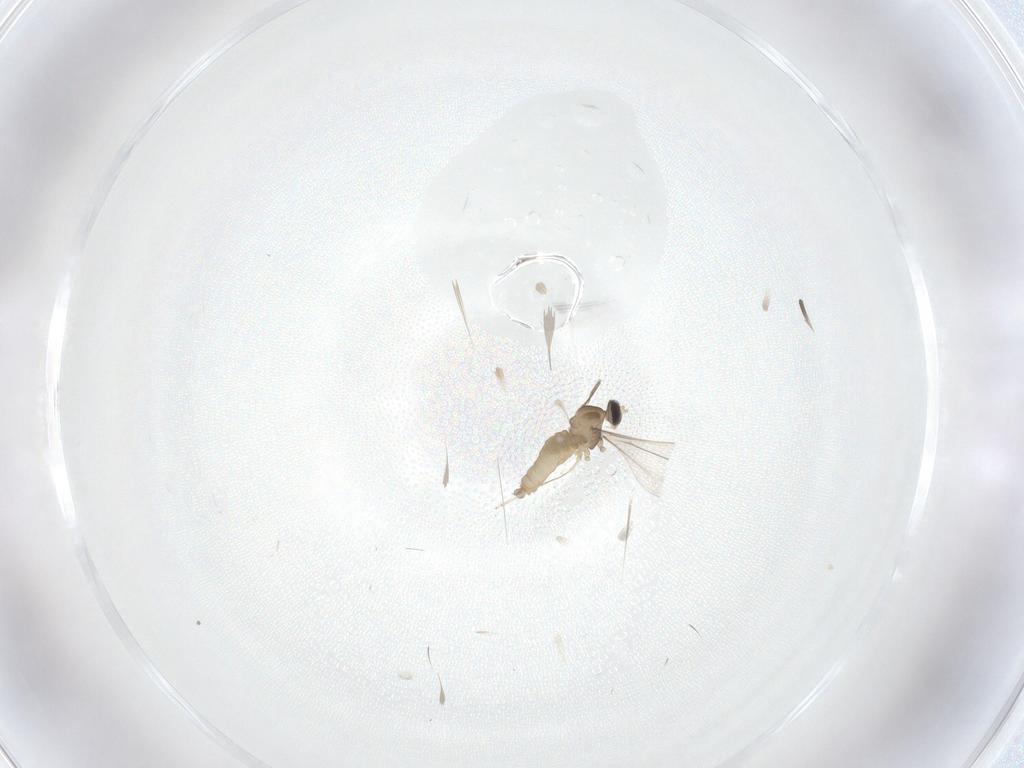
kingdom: Animalia
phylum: Arthropoda
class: Insecta
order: Diptera
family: Cecidomyiidae
